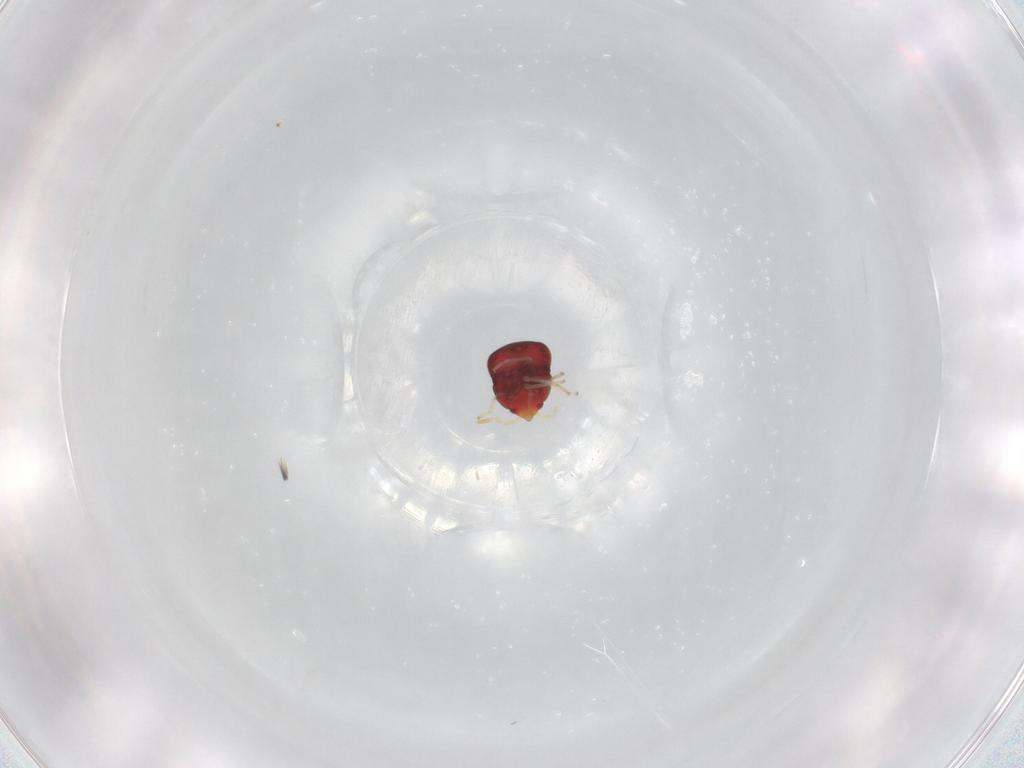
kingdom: Animalia
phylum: Arthropoda
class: Insecta
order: Hemiptera
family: Anthocoridae
